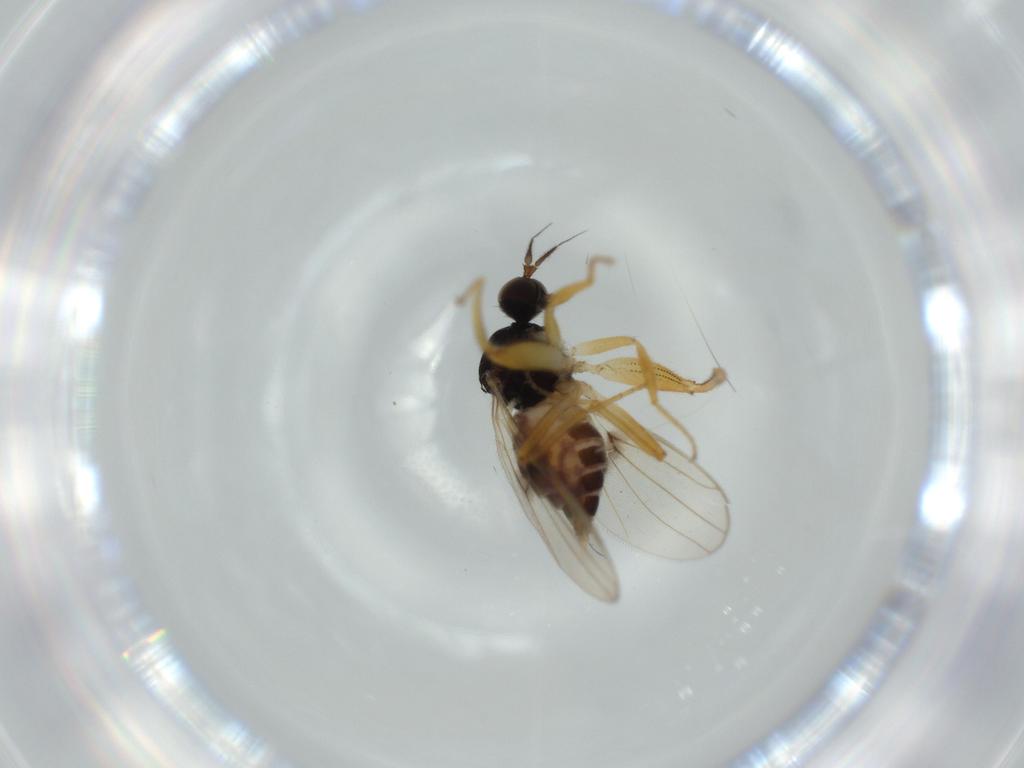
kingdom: Animalia
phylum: Arthropoda
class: Insecta
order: Diptera
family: Hybotidae
